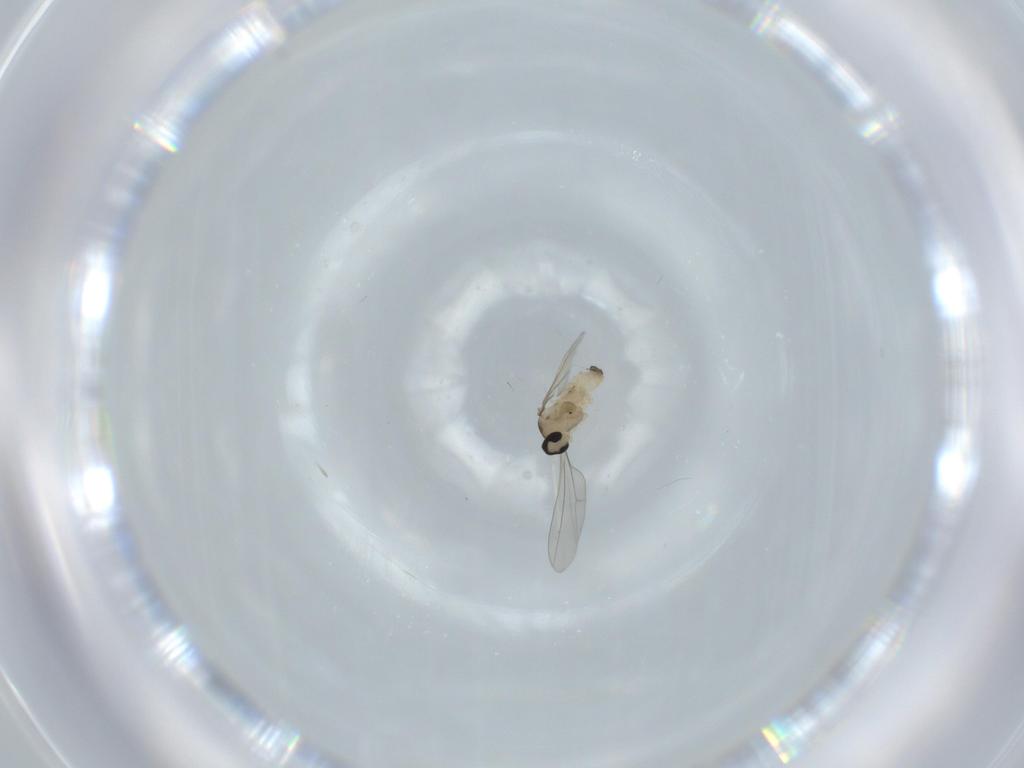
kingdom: Animalia
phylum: Arthropoda
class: Insecta
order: Diptera
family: Cecidomyiidae
